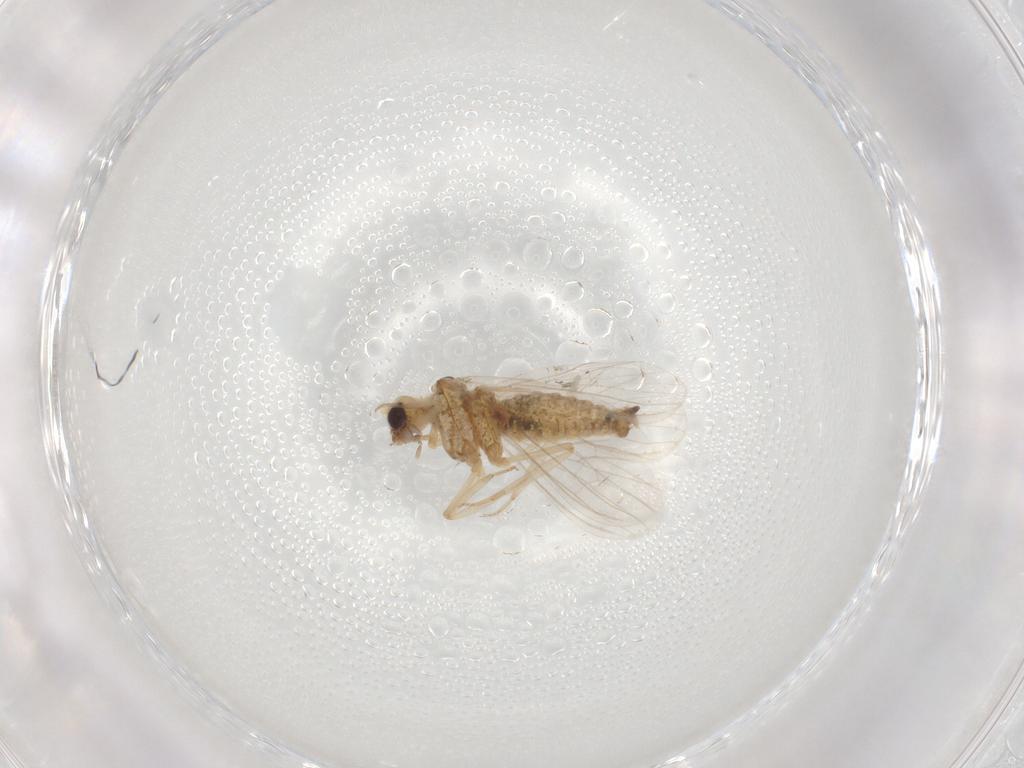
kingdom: Animalia
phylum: Arthropoda
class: Insecta
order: Neuroptera
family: Coniopterygidae
